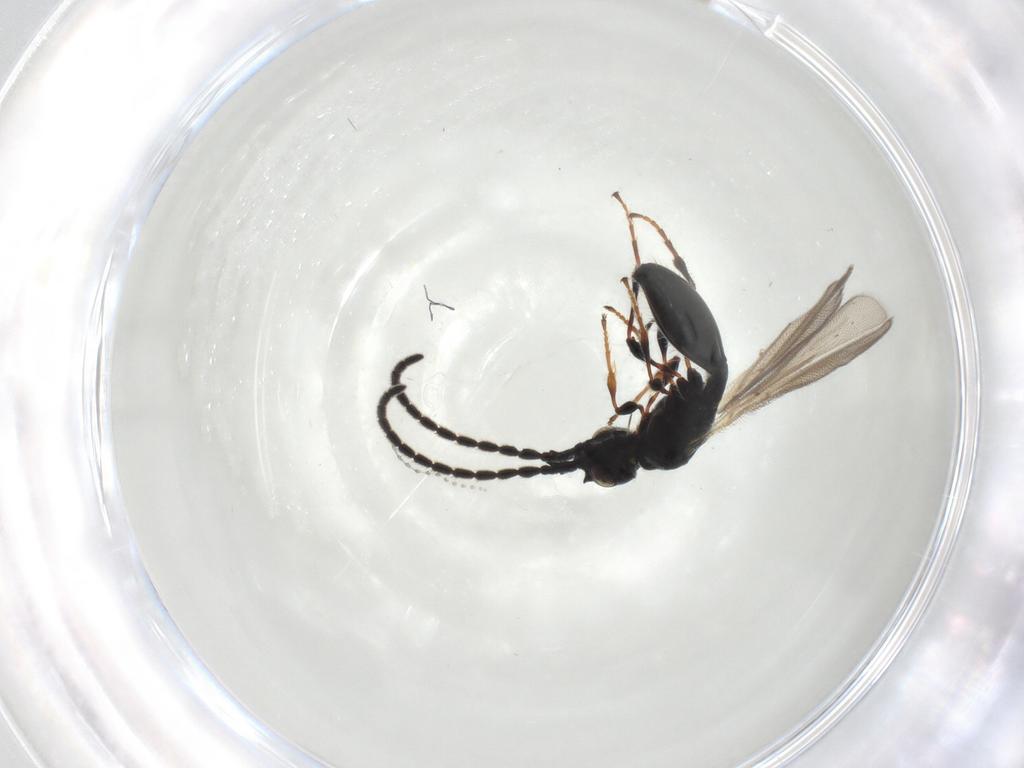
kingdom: Animalia
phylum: Arthropoda
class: Insecta
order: Hymenoptera
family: Diapriidae
